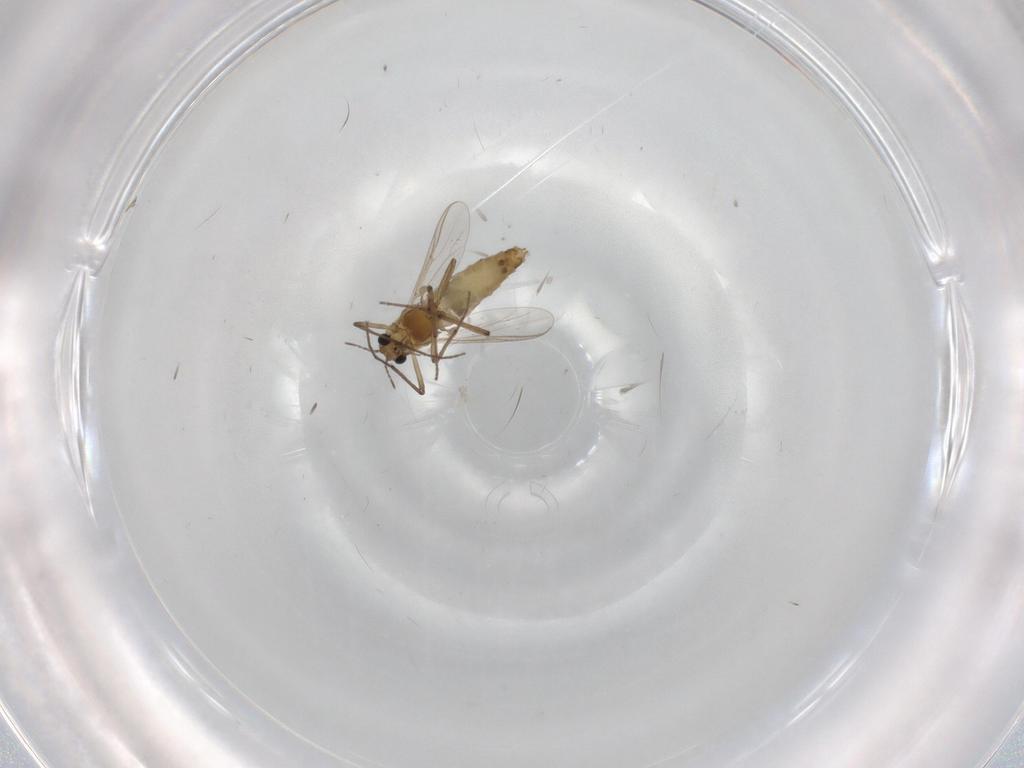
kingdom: Animalia
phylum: Arthropoda
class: Insecta
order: Diptera
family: Chironomidae
